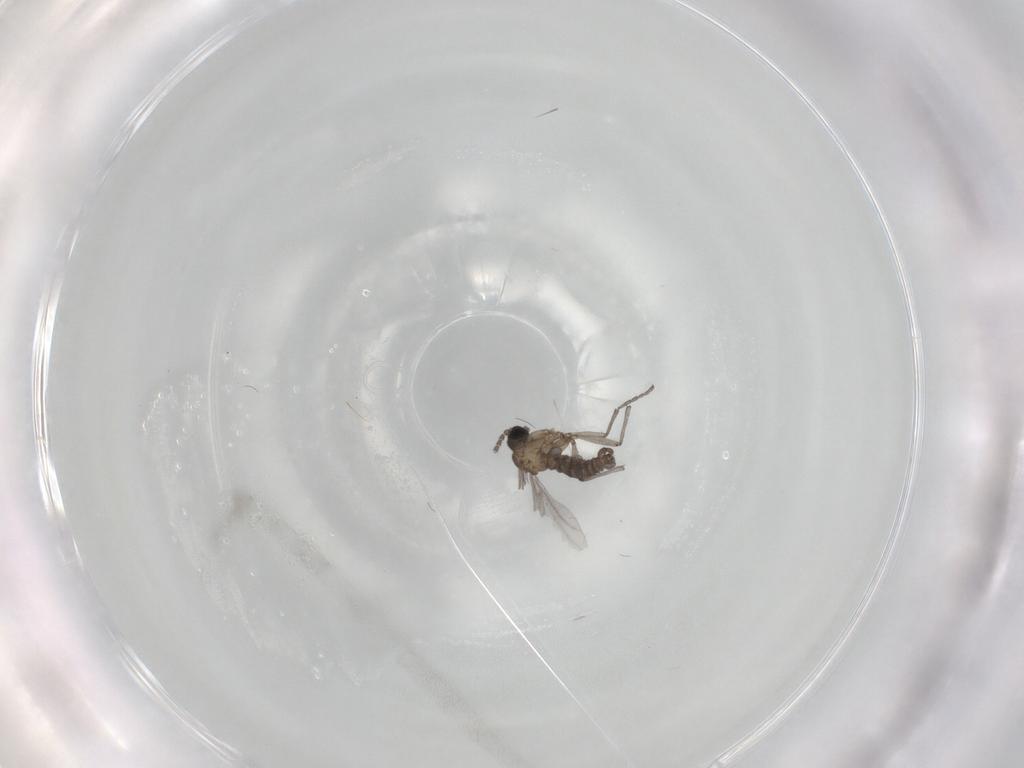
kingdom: Animalia
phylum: Arthropoda
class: Insecta
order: Diptera
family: Sciaridae
